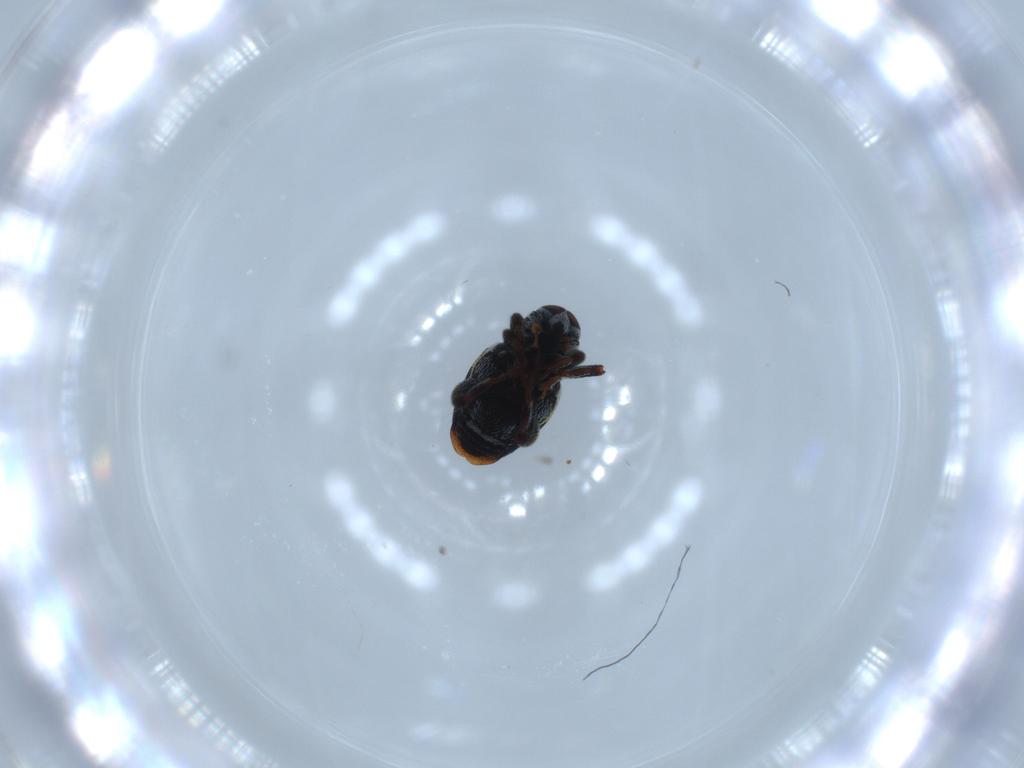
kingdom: Animalia
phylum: Arthropoda
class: Insecta
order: Coleoptera
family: Curculionidae
